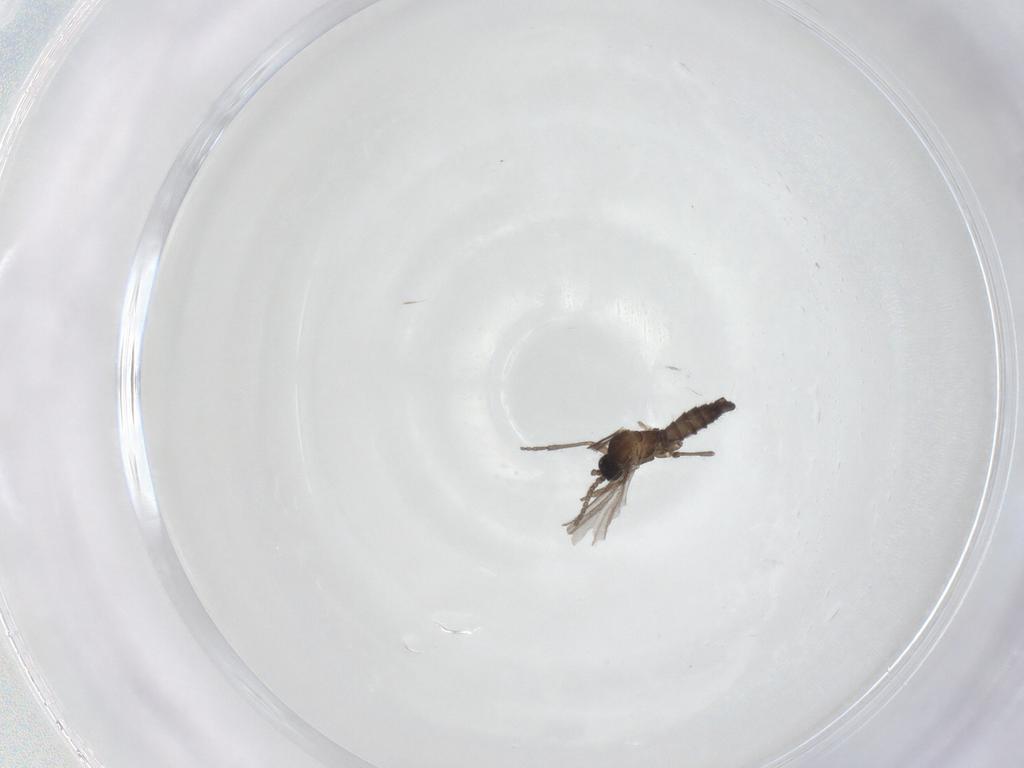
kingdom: Animalia
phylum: Arthropoda
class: Insecta
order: Diptera
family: Sciaridae
